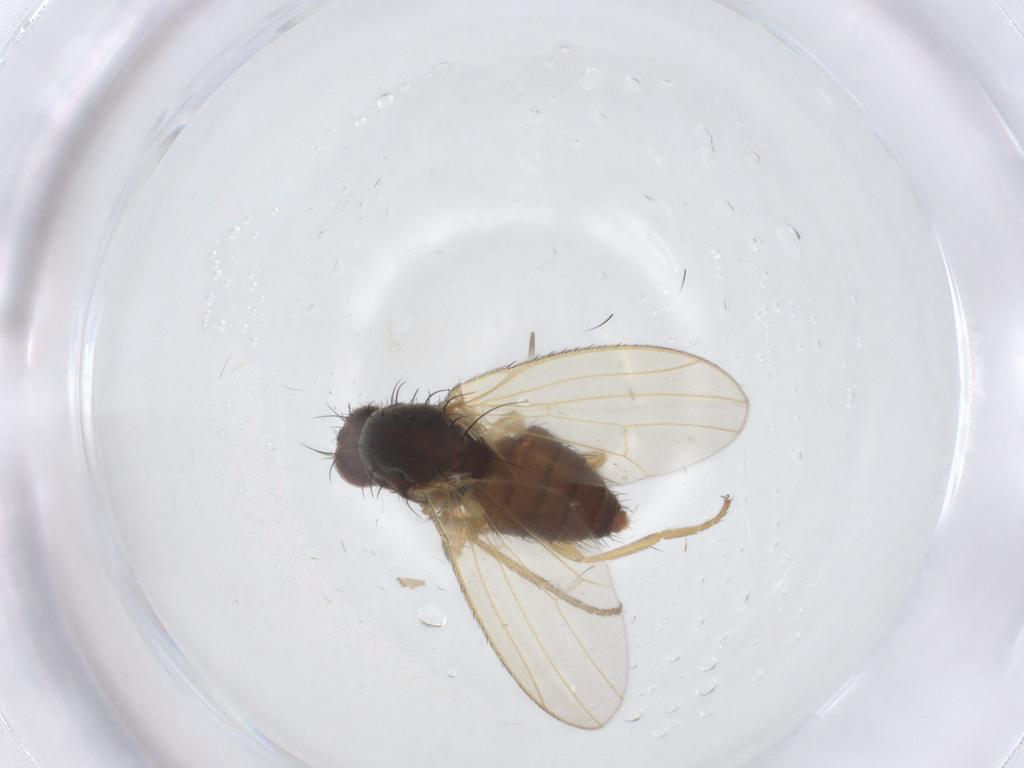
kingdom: Animalia
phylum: Arthropoda
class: Insecta
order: Diptera
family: Heleomyzidae
